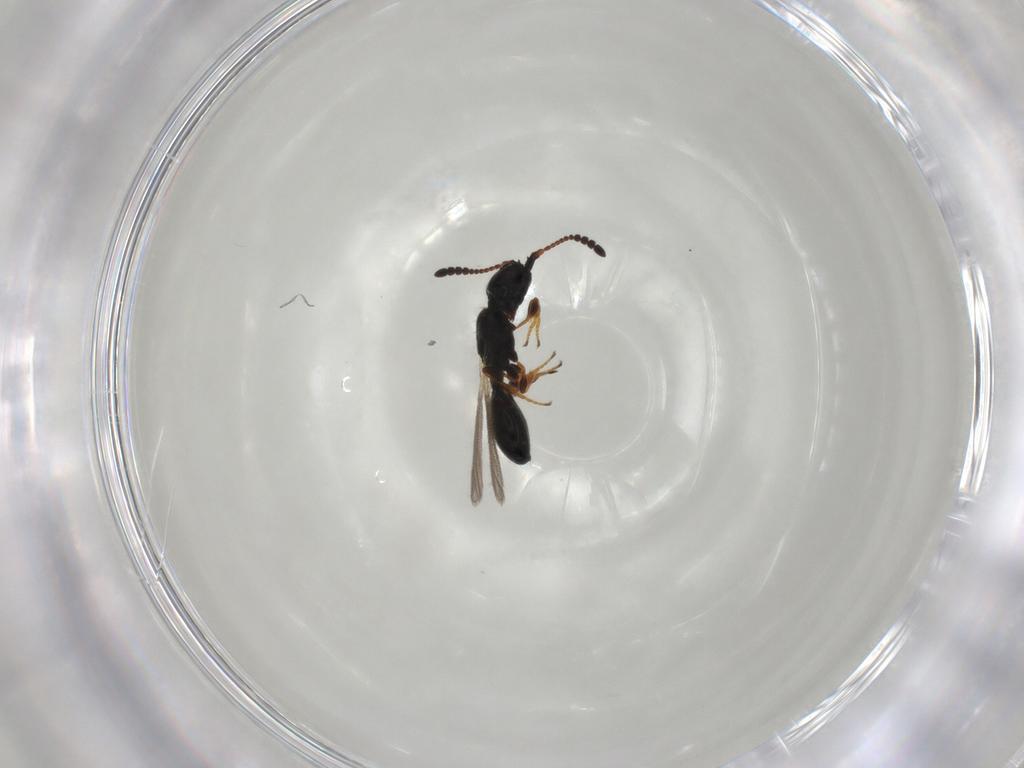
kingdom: Animalia
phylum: Arthropoda
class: Insecta
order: Hymenoptera
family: Diapriidae
